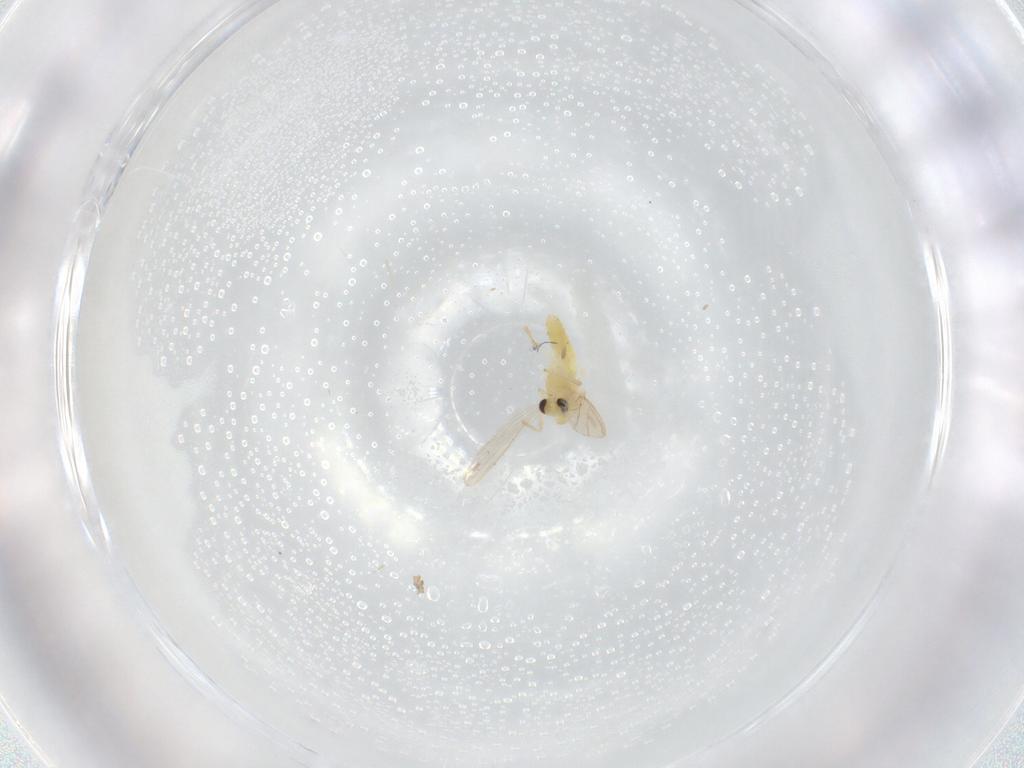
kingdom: Animalia
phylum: Arthropoda
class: Insecta
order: Diptera
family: Chironomidae
